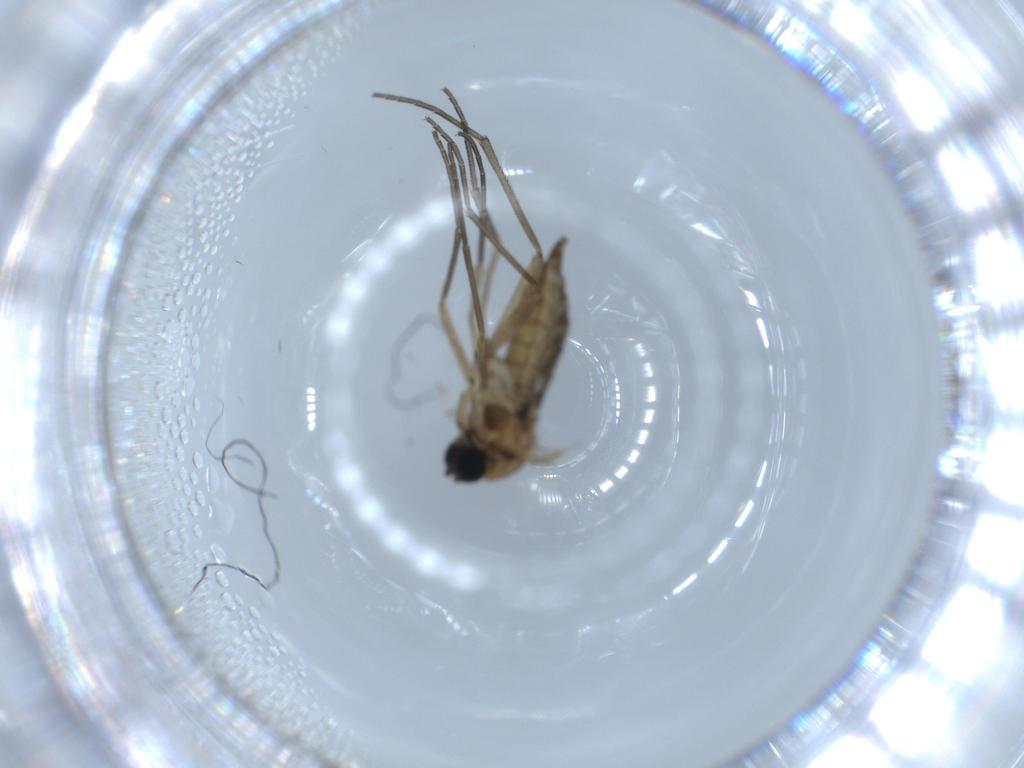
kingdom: Animalia
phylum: Arthropoda
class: Insecta
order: Diptera
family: Sciaridae
